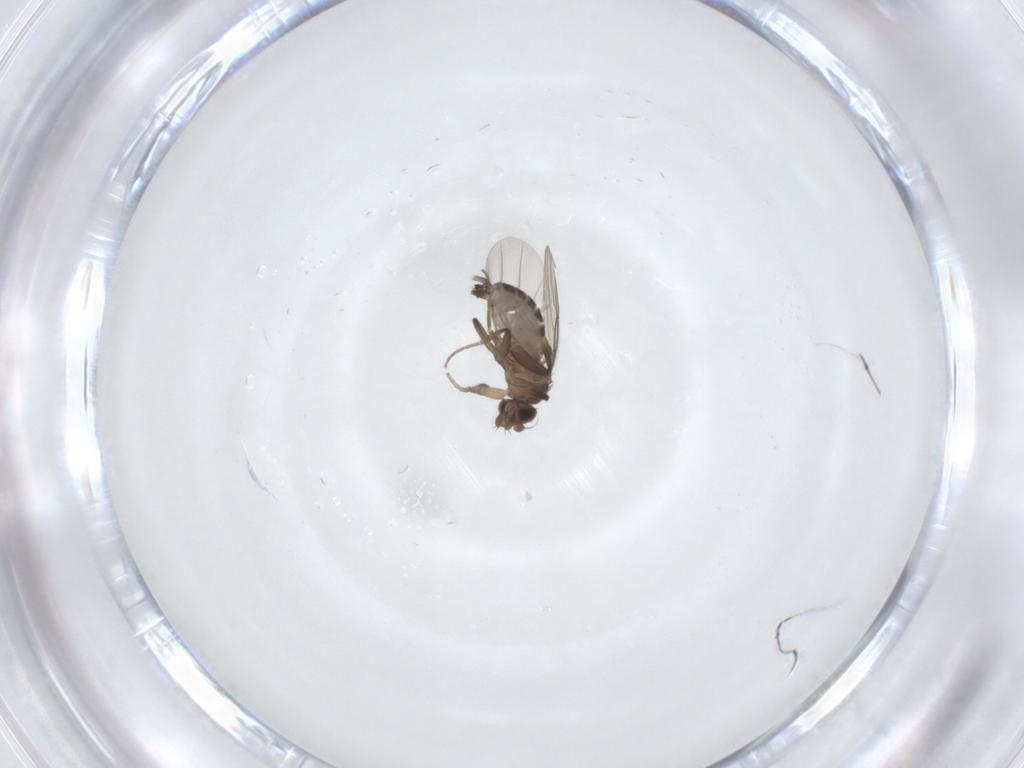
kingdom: Animalia
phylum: Arthropoda
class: Insecta
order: Diptera
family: Phoridae
